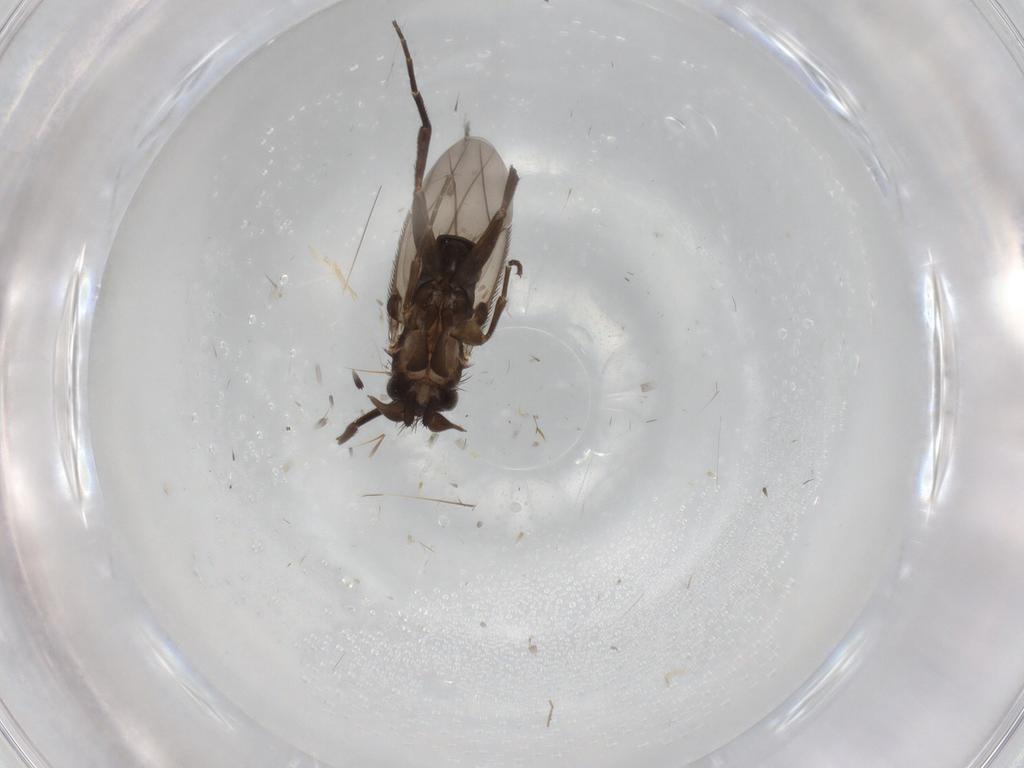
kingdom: Animalia
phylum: Arthropoda
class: Insecta
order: Diptera
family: Phoridae
